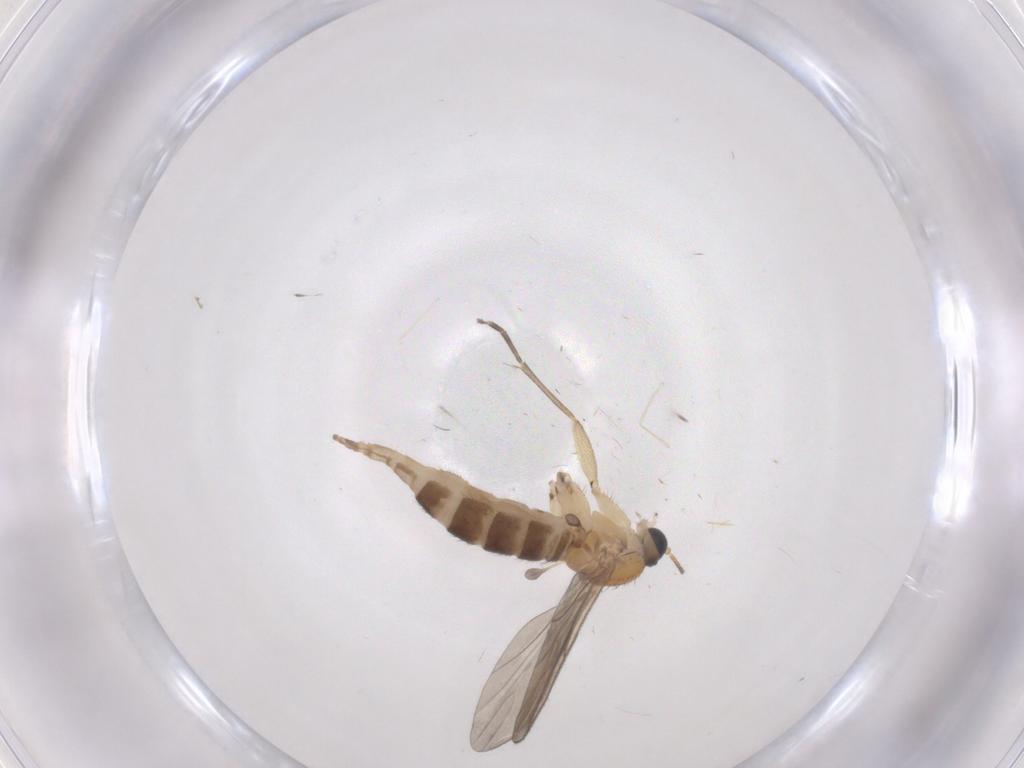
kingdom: Animalia
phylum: Arthropoda
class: Insecta
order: Diptera
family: Sciaridae
